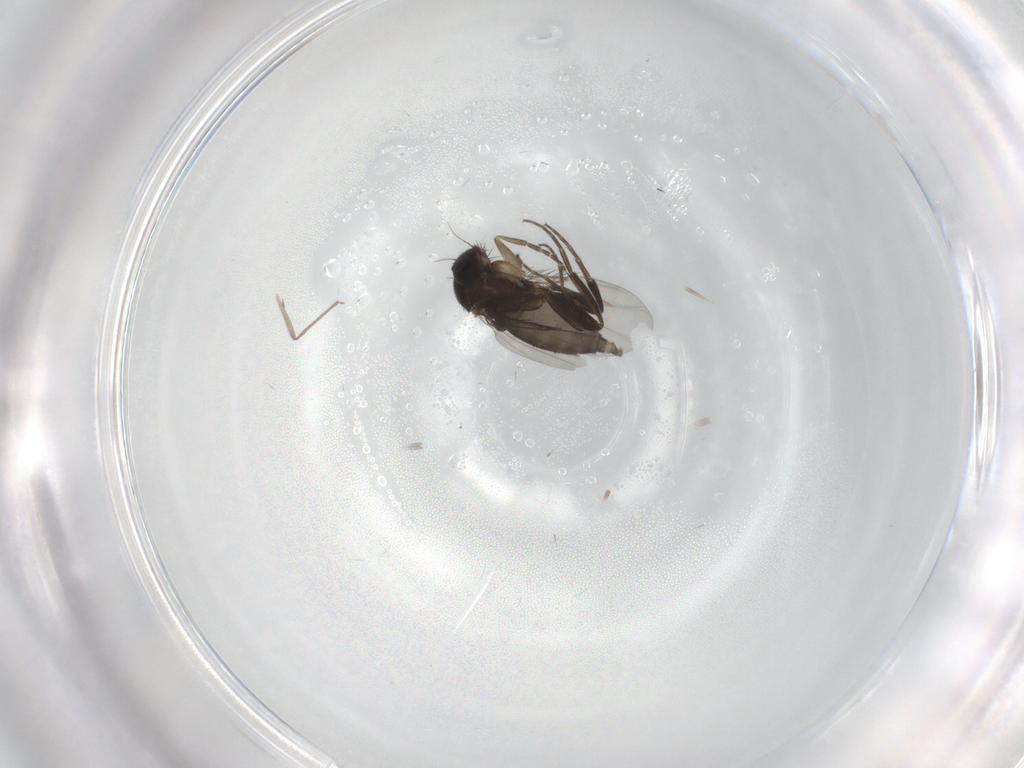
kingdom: Animalia
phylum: Arthropoda
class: Insecta
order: Diptera
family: Phoridae
